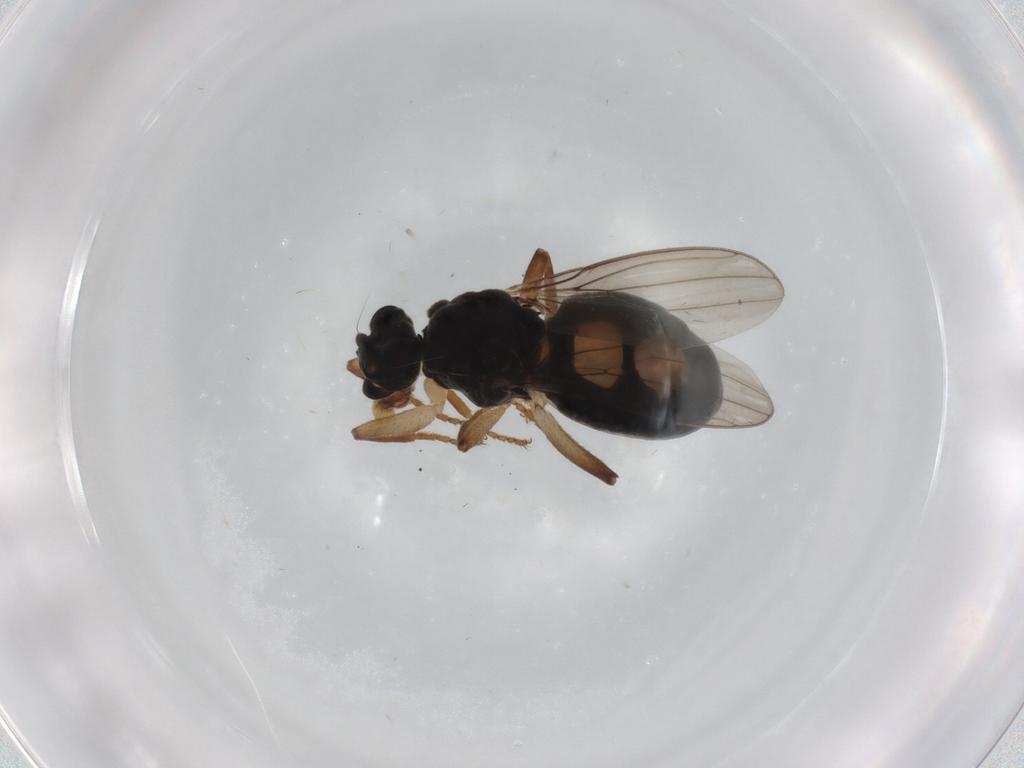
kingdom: Animalia
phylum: Arthropoda
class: Insecta
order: Diptera
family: Sphaeroceridae
